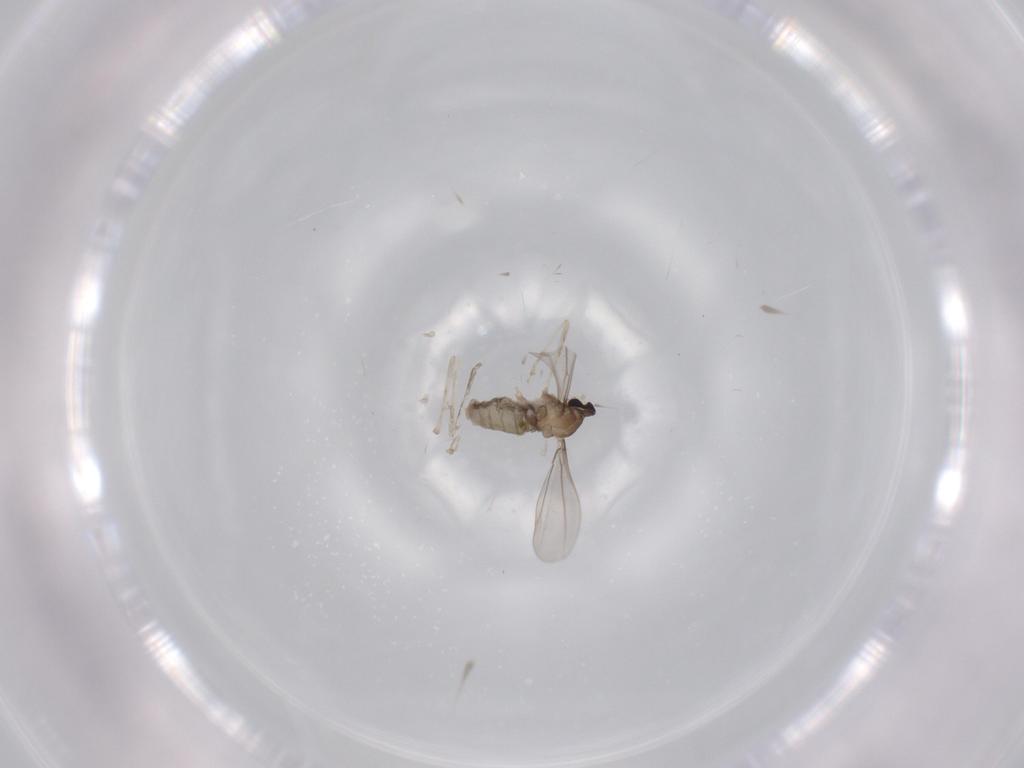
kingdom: Animalia
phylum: Arthropoda
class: Insecta
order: Diptera
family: Cecidomyiidae
